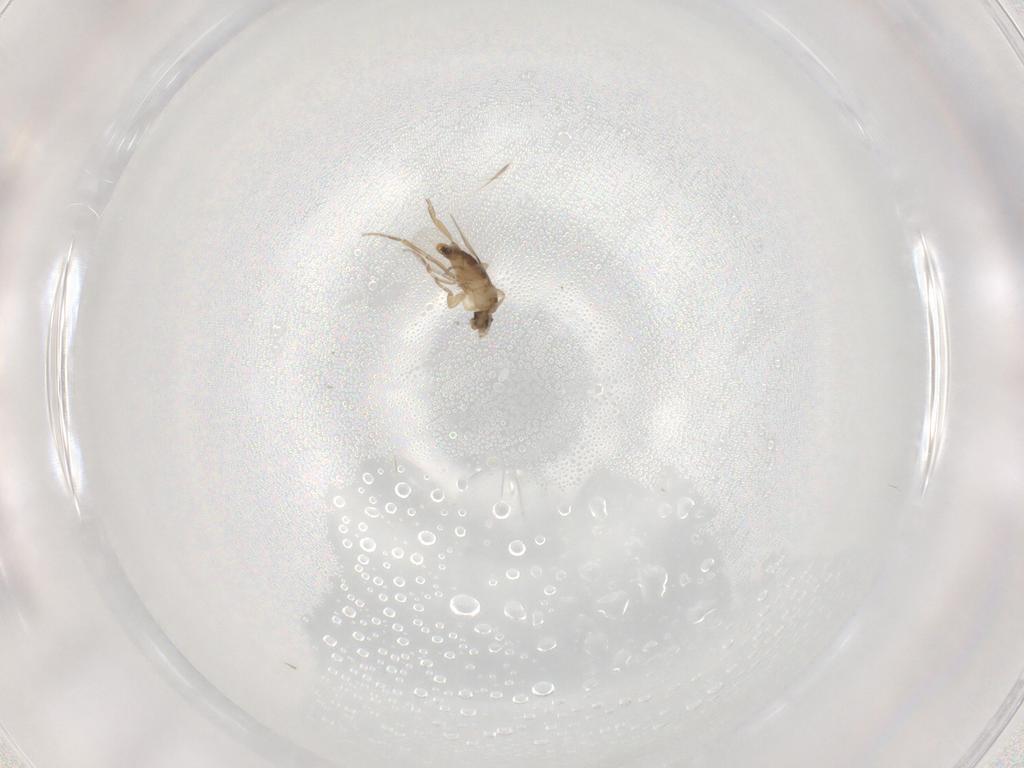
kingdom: Animalia
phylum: Arthropoda
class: Insecta
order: Diptera
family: Phoridae
